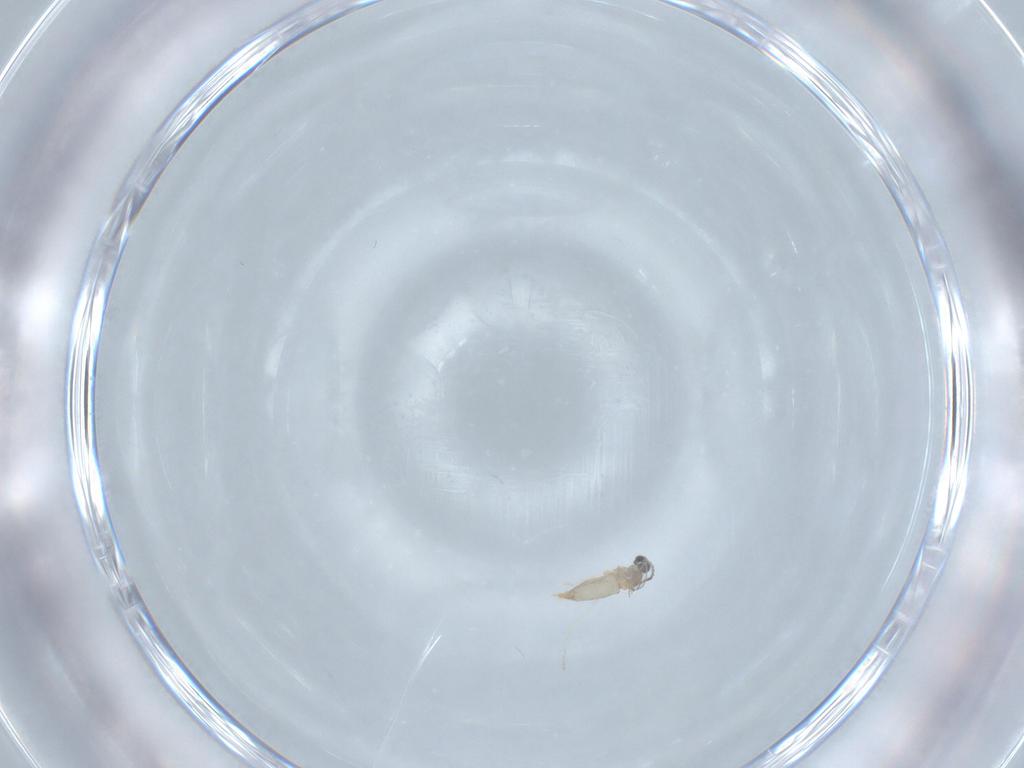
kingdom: Animalia
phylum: Arthropoda
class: Insecta
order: Diptera
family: Cecidomyiidae
